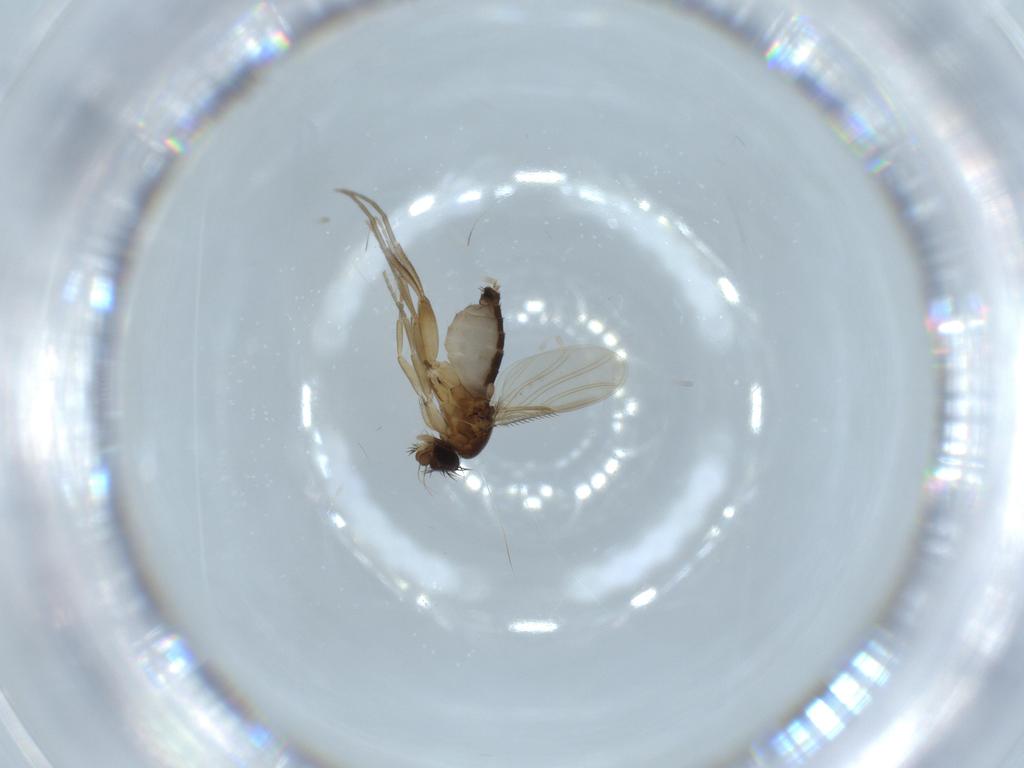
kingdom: Animalia
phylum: Arthropoda
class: Insecta
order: Diptera
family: Phoridae
